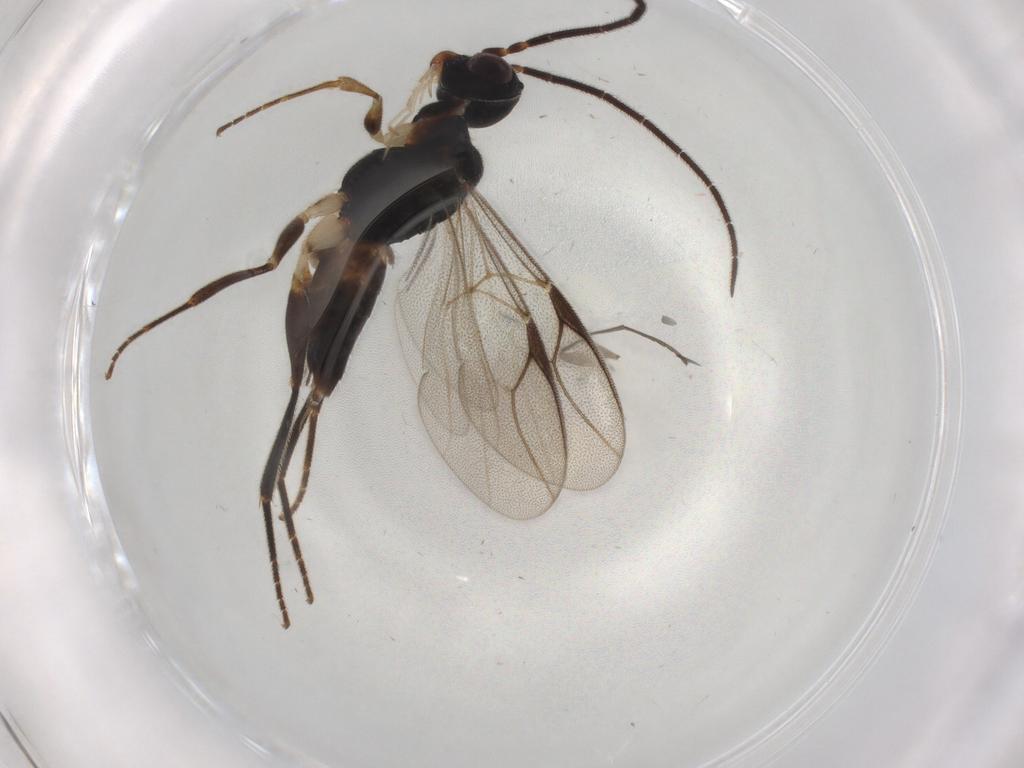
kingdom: Animalia
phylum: Arthropoda
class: Insecta
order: Hymenoptera
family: Dryinidae
